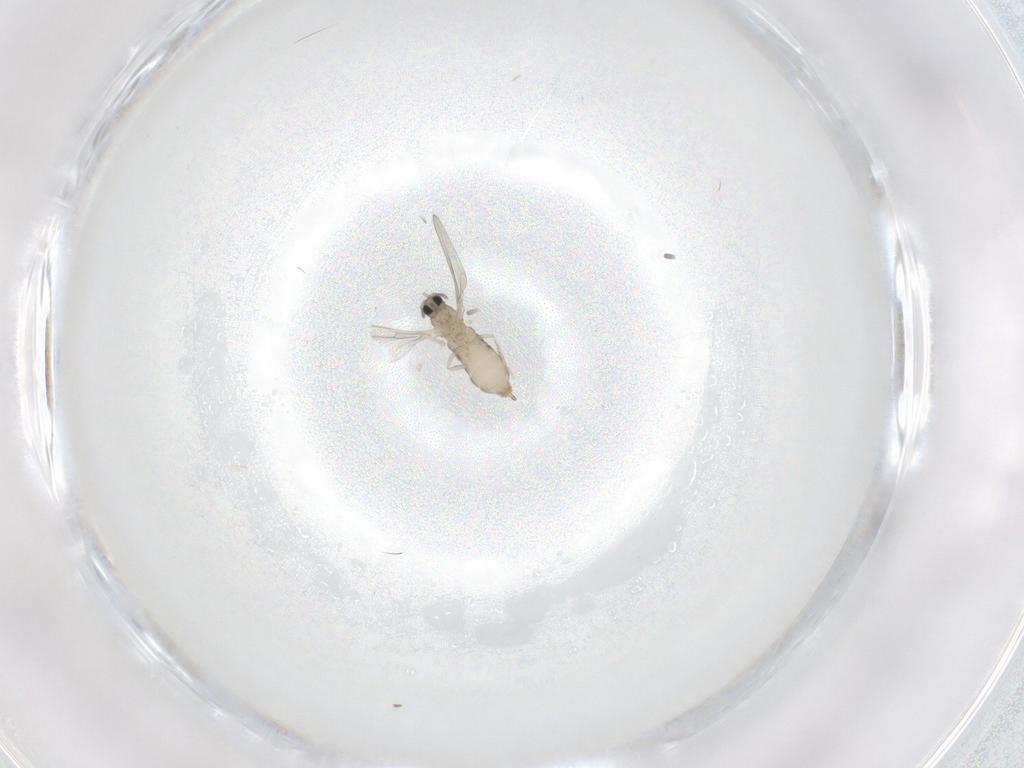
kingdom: Animalia
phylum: Arthropoda
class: Insecta
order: Diptera
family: Cecidomyiidae
